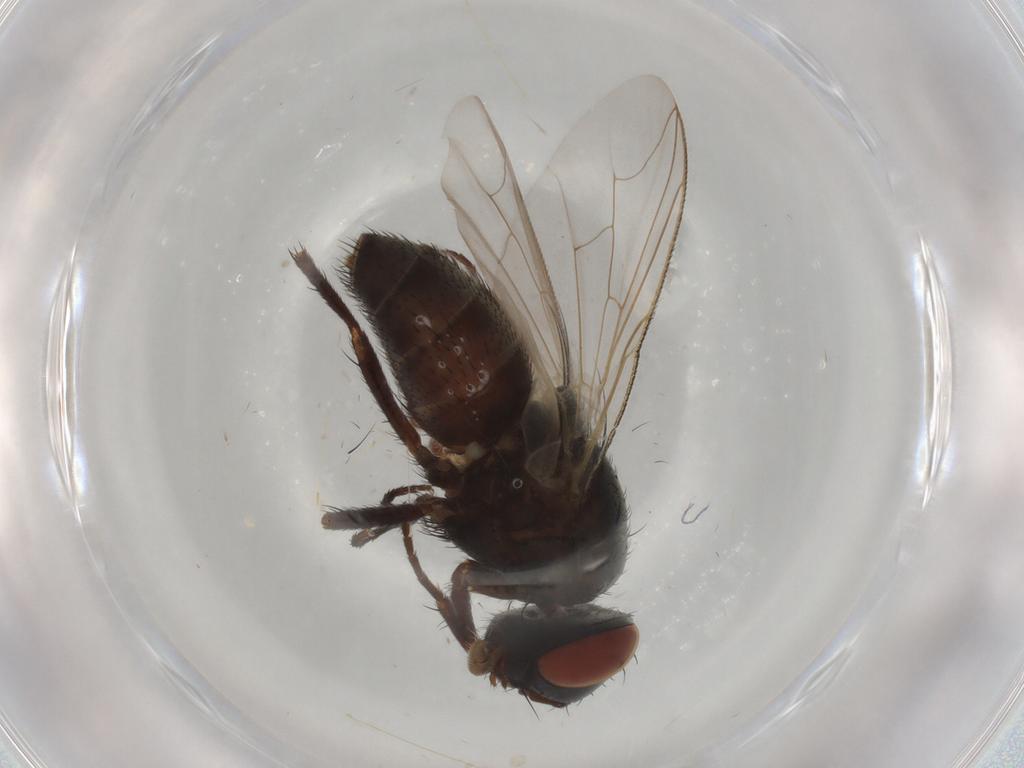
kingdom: Animalia
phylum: Arthropoda
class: Insecta
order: Diptera
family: Sarcophagidae
